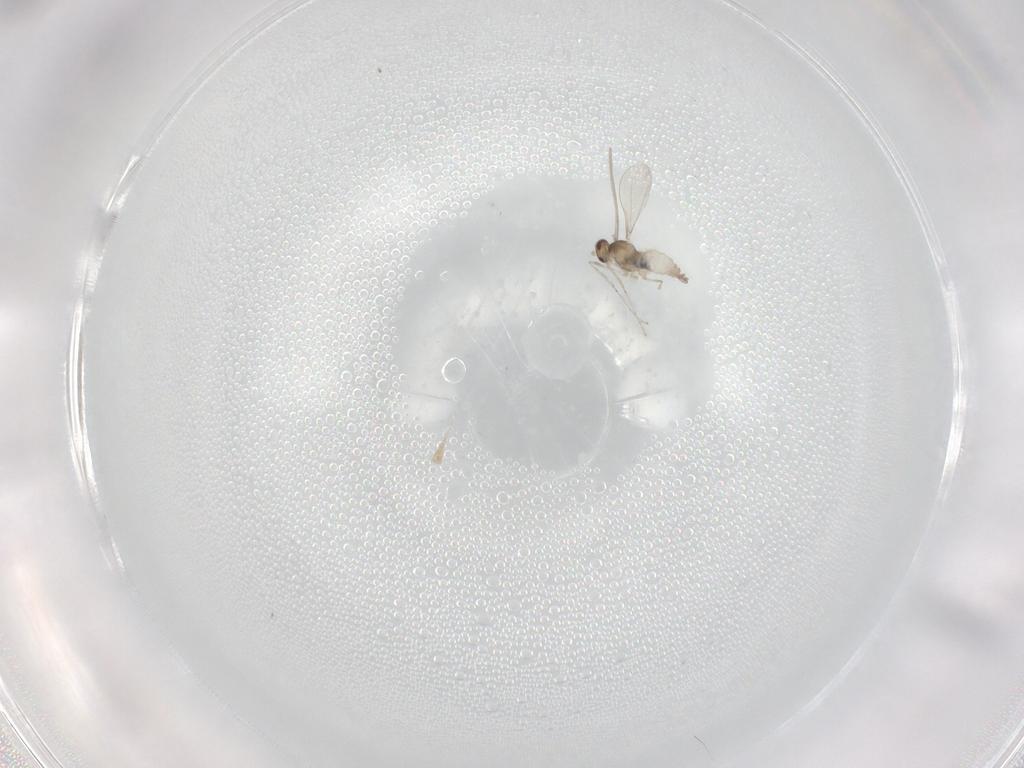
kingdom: Animalia
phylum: Arthropoda
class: Insecta
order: Diptera
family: Cecidomyiidae
